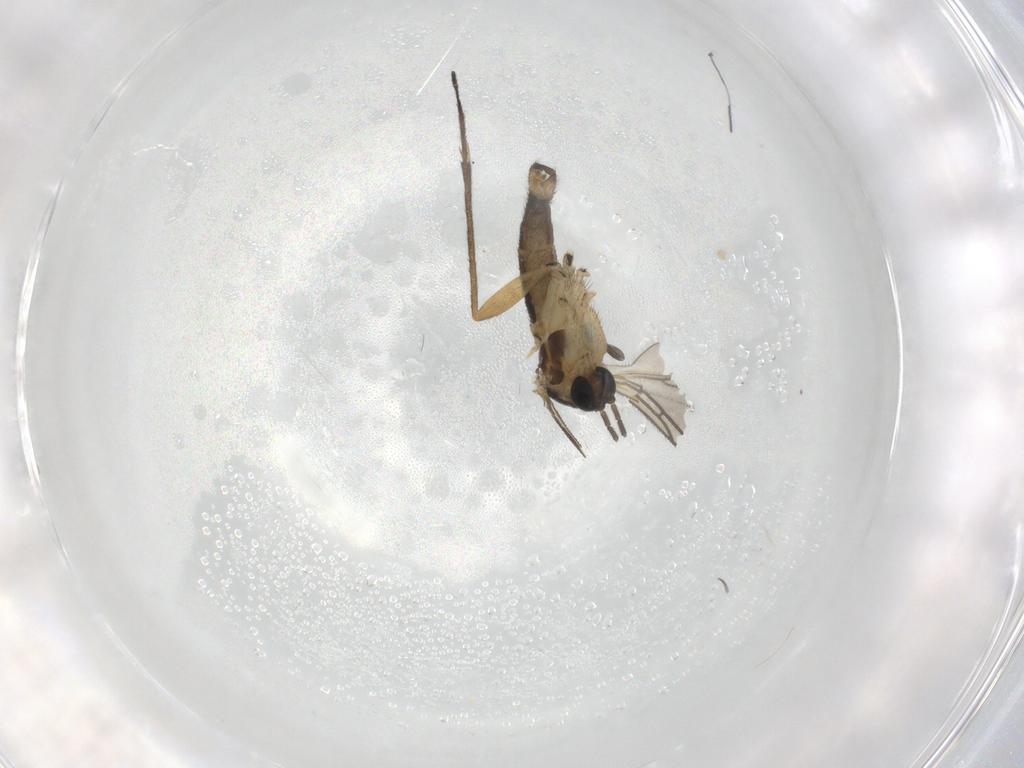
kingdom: Animalia
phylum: Arthropoda
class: Insecta
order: Diptera
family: Sciaridae
